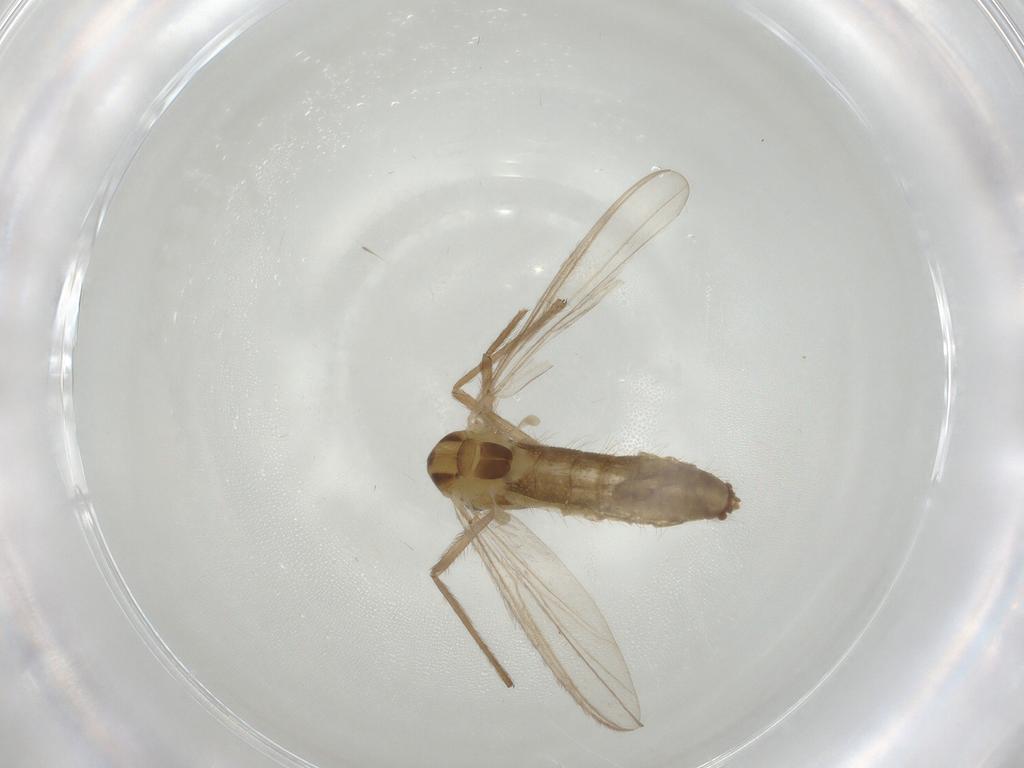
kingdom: Animalia
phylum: Arthropoda
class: Insecta
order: Diptera
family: Chironomidae
